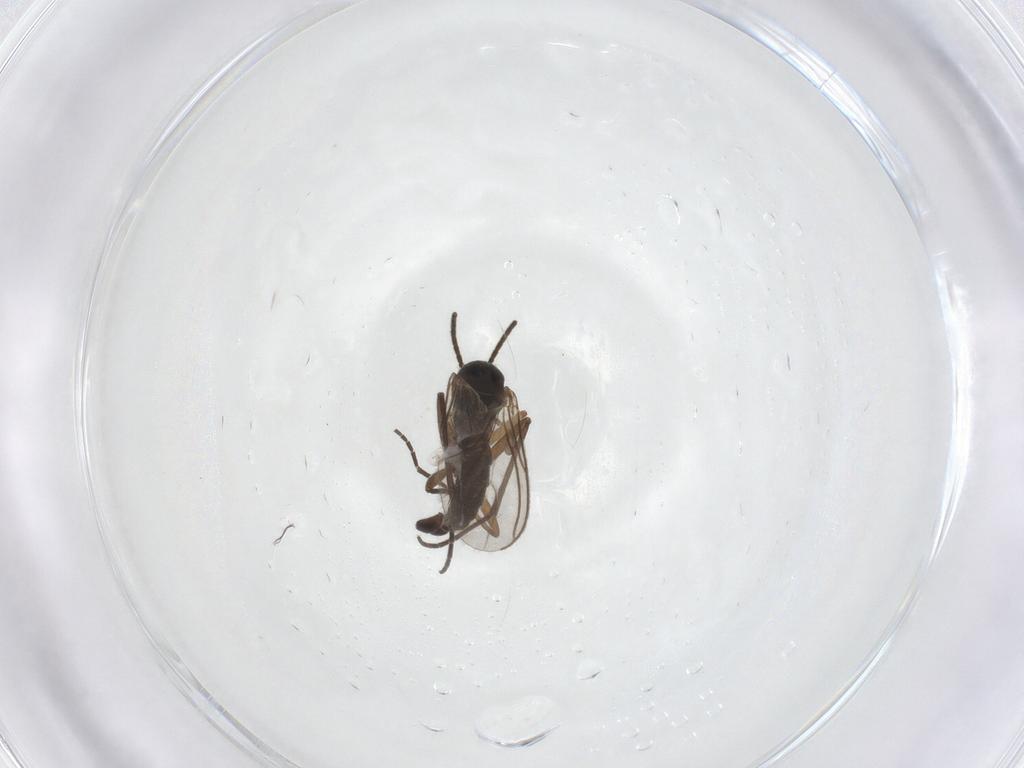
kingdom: Animalia
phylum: Arthropoda
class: Insecta
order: Diptera
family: Sciaridae
